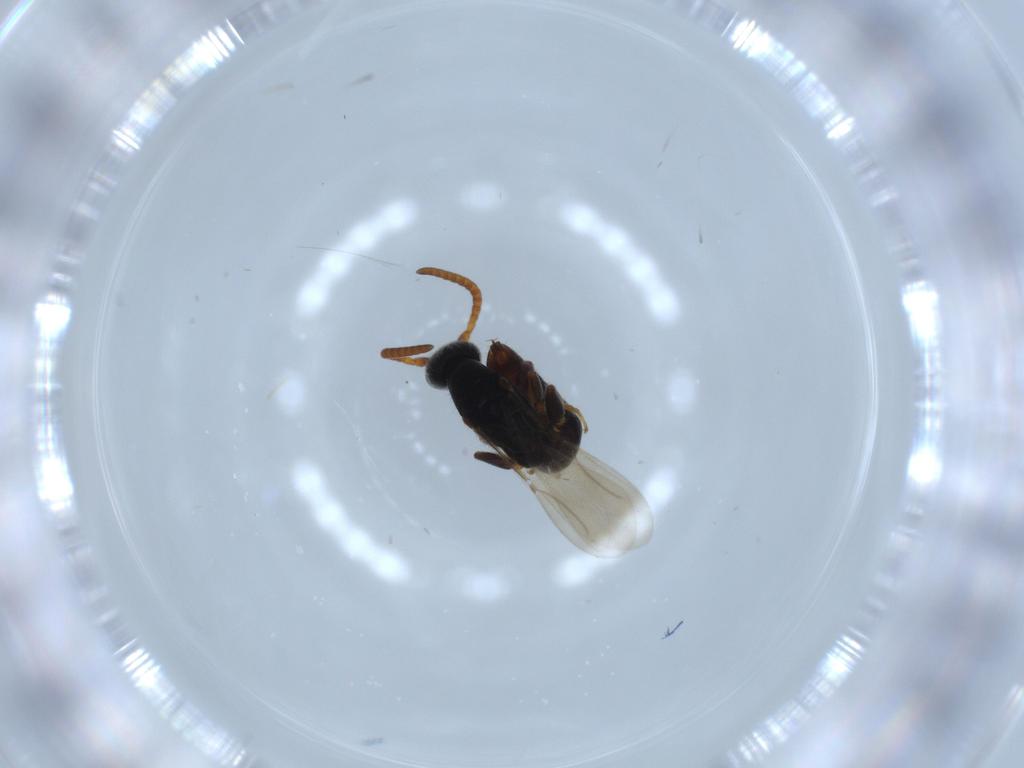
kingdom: Animalia
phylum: Arthropoda
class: Insecta
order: Hymenoptera
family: Bethylidae
